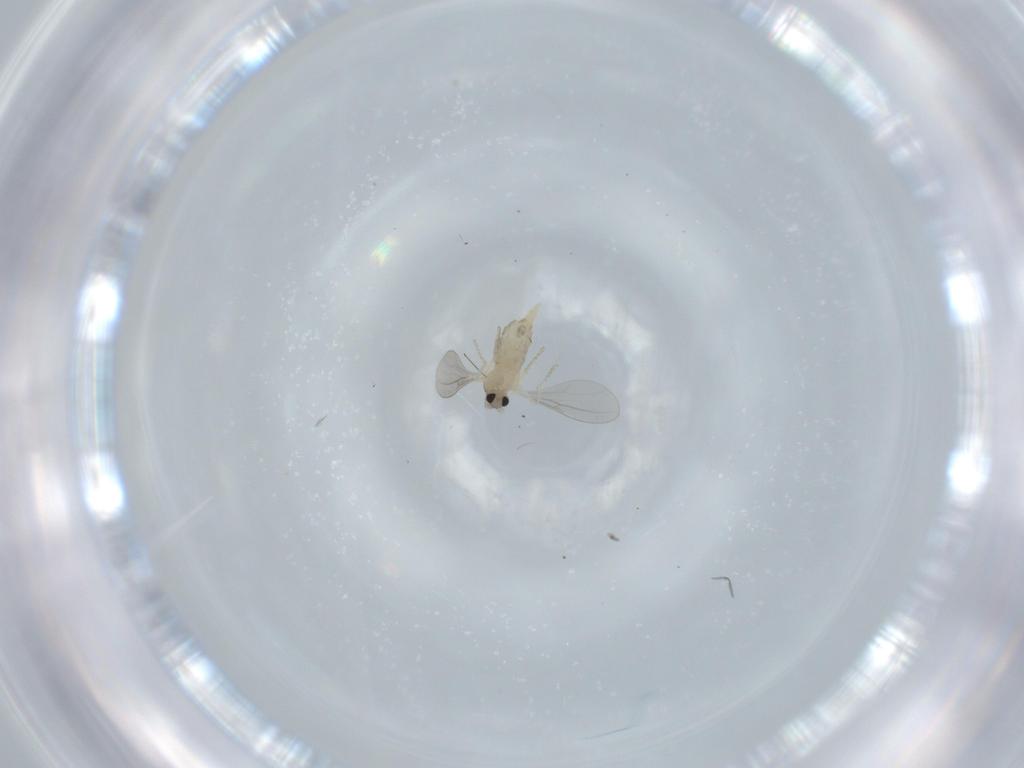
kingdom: Animalia
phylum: Arthropoda
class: Insecta
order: Diptera
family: Cecidomyiidae
